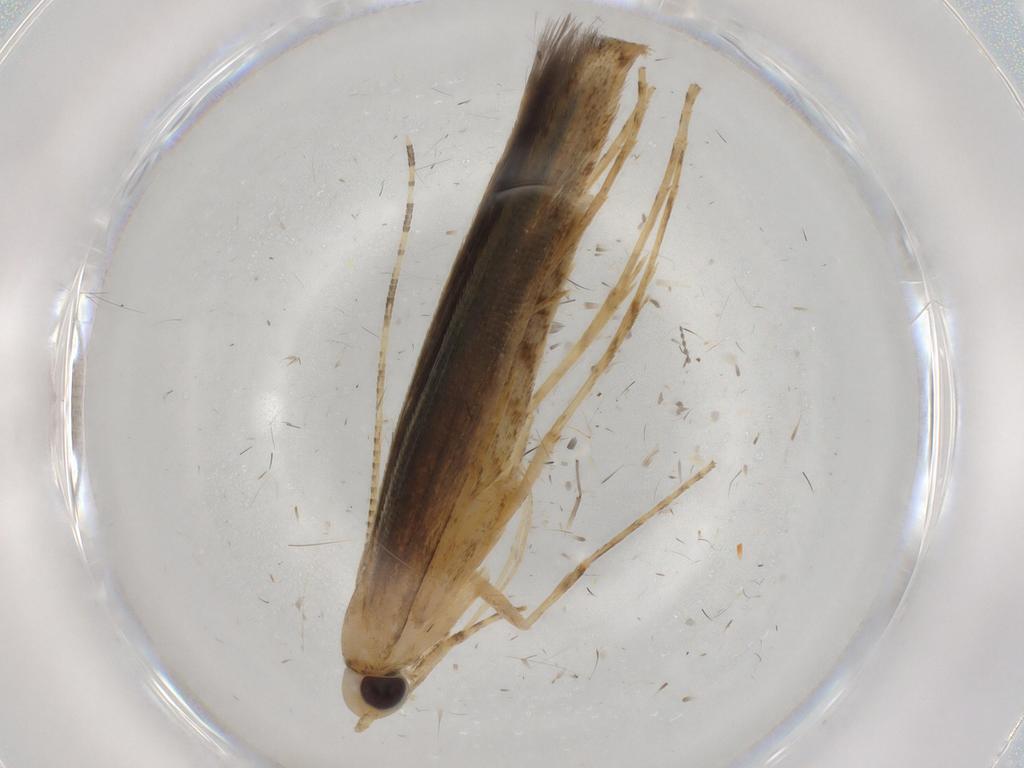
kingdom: Animalia
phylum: Arthropoda
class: Insecta
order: Lepidoptera
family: Batrachedridae
